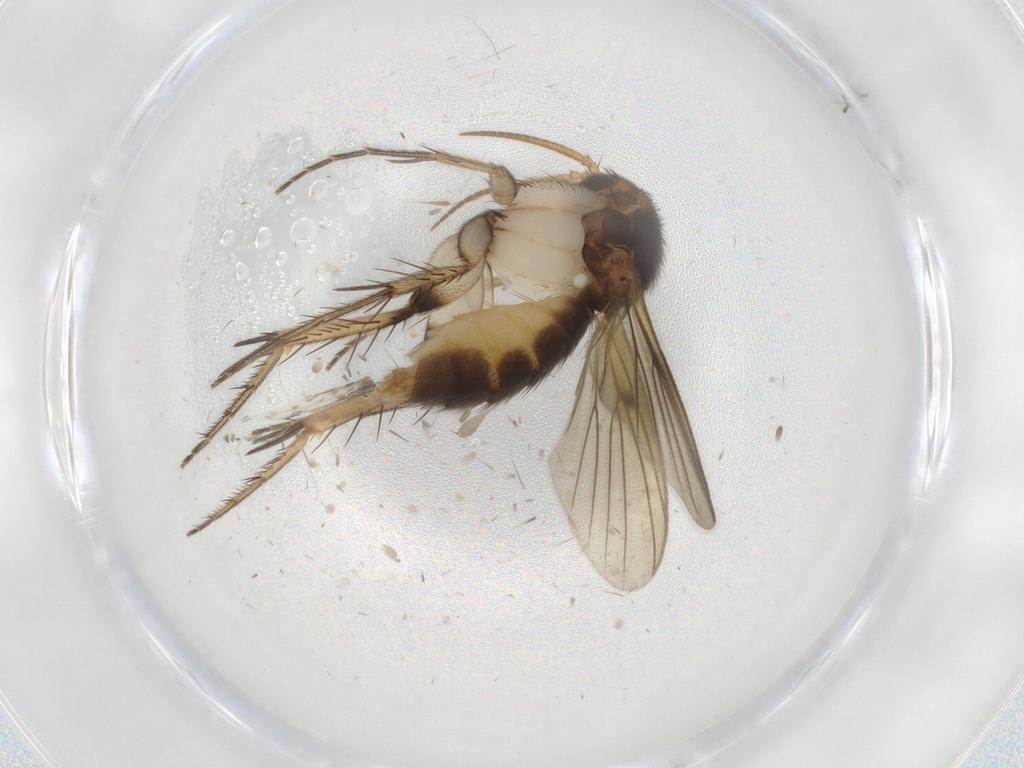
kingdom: Animalia
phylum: Arthropoda
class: Insecta
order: Diptera
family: Mycetophilidae
